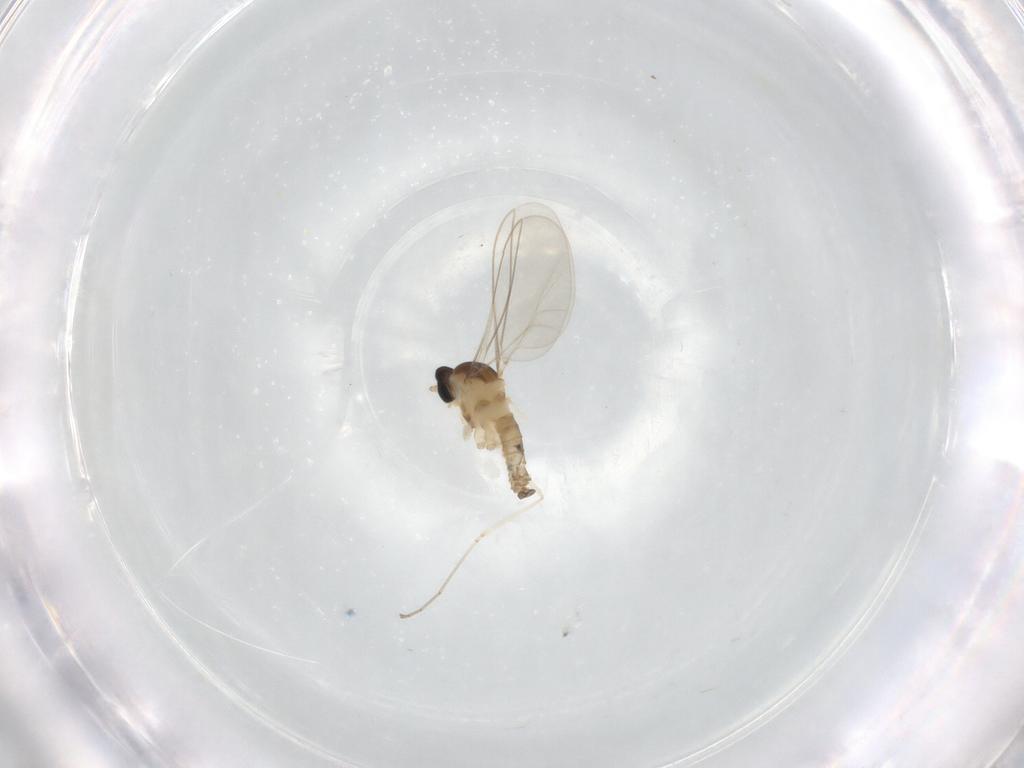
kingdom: Animalia
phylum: Arthropoda
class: Insecta
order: Diptera
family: Cecidomyiidae
